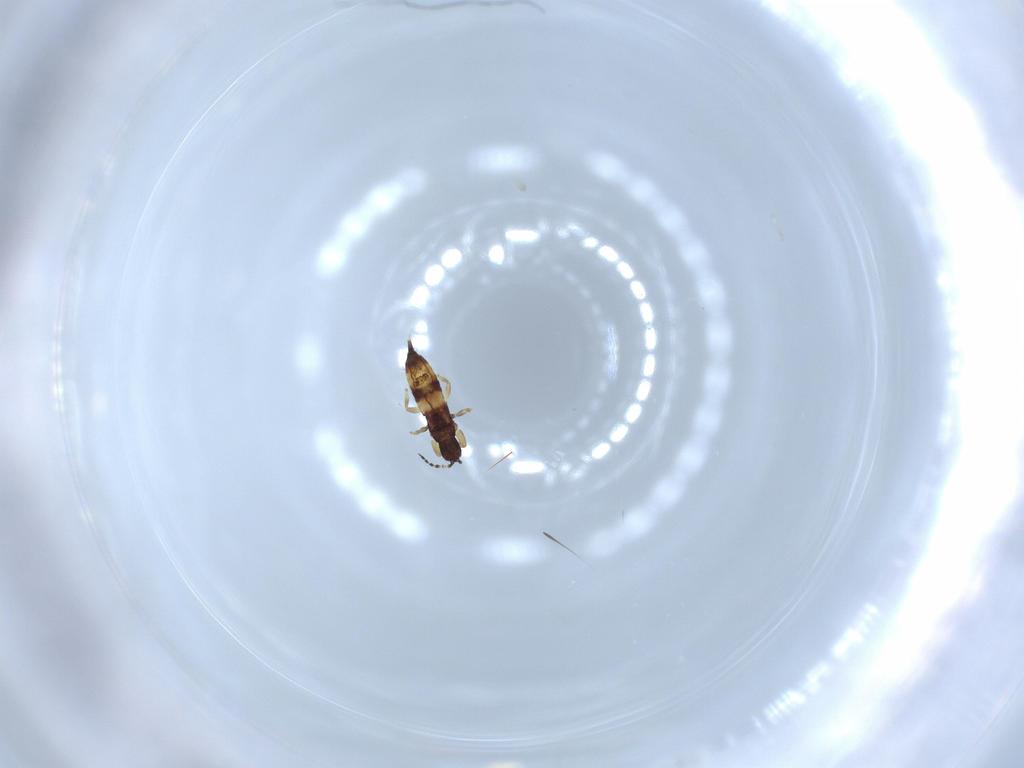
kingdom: Animalia
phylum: Arthropoda
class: Insecta
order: Thysanoptera
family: Phlaeothripidae
